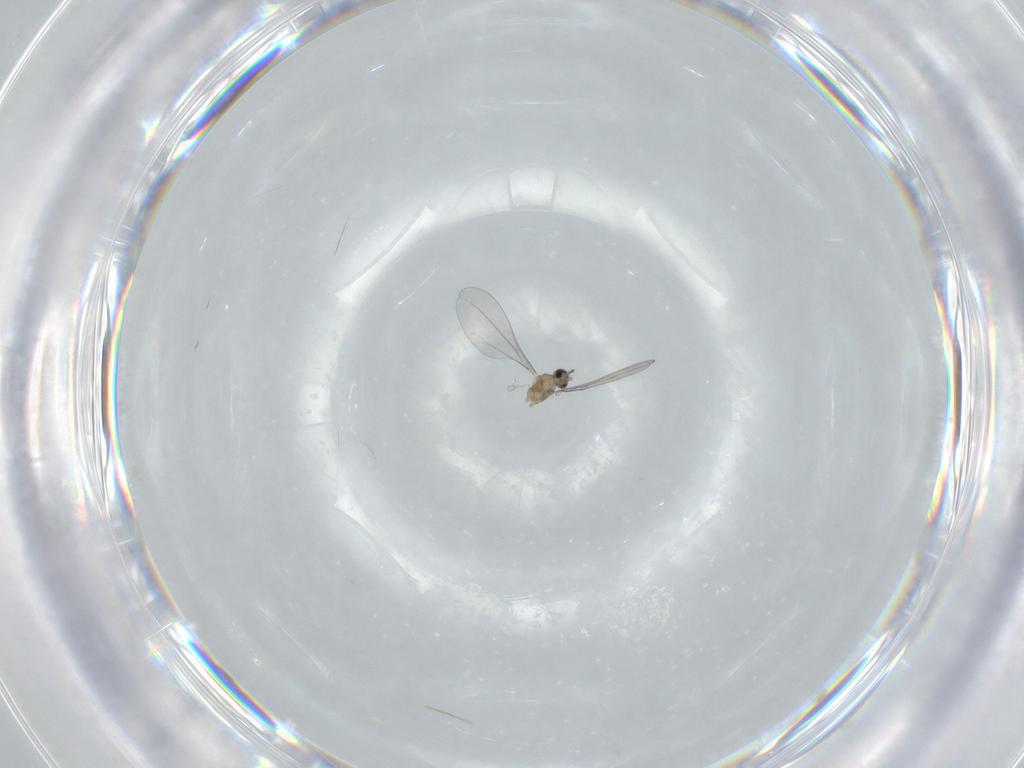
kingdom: Animalia
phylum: Arthropoda
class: Insecta
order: Diptera
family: Cecidomyiidae
